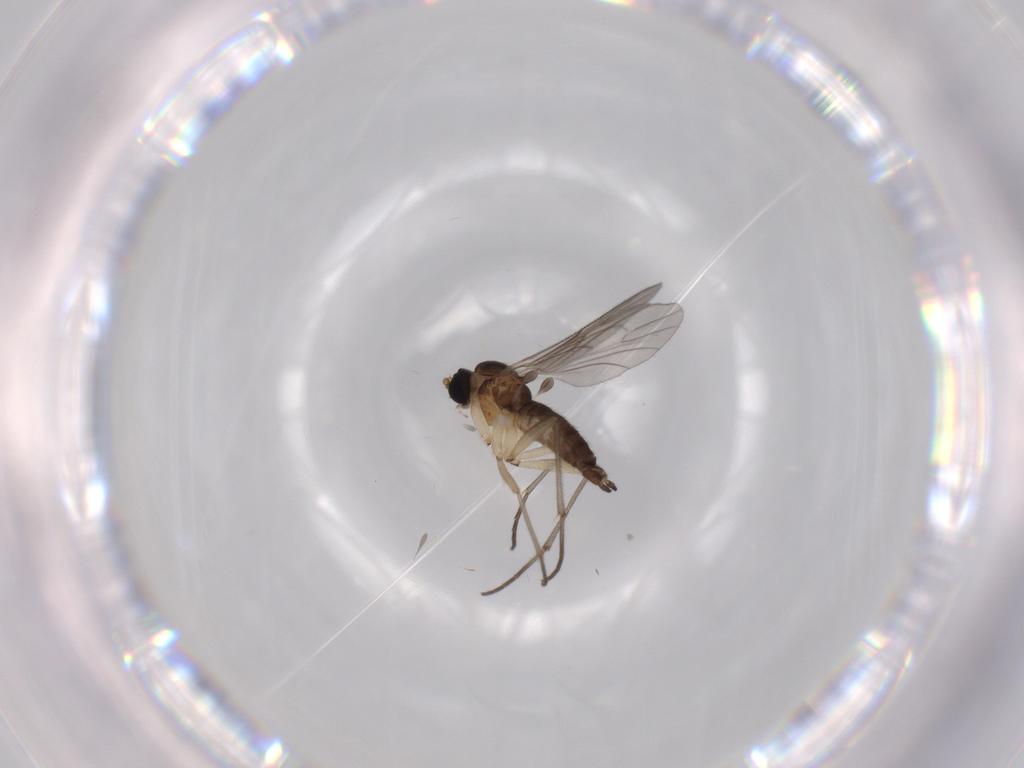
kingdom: Animalia
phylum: Arthropoda
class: Insecta
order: Diptera
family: Sciaridae
